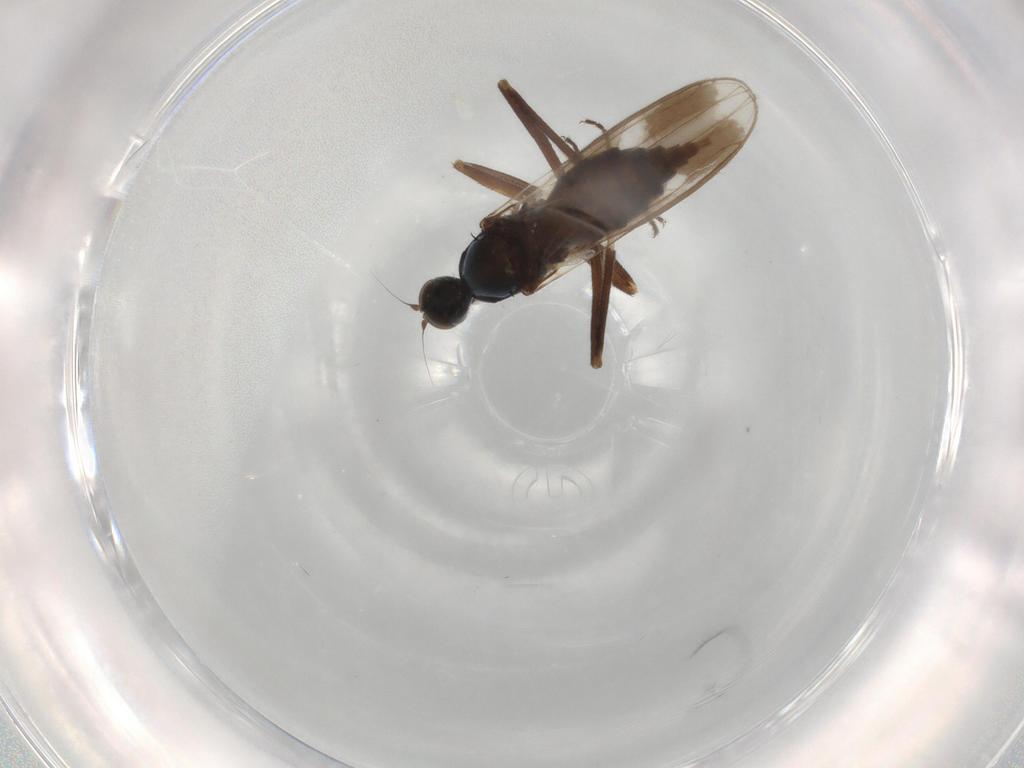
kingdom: Animalia
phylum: Arthropoda
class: Insecta
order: Diptera
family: Hybotidae
